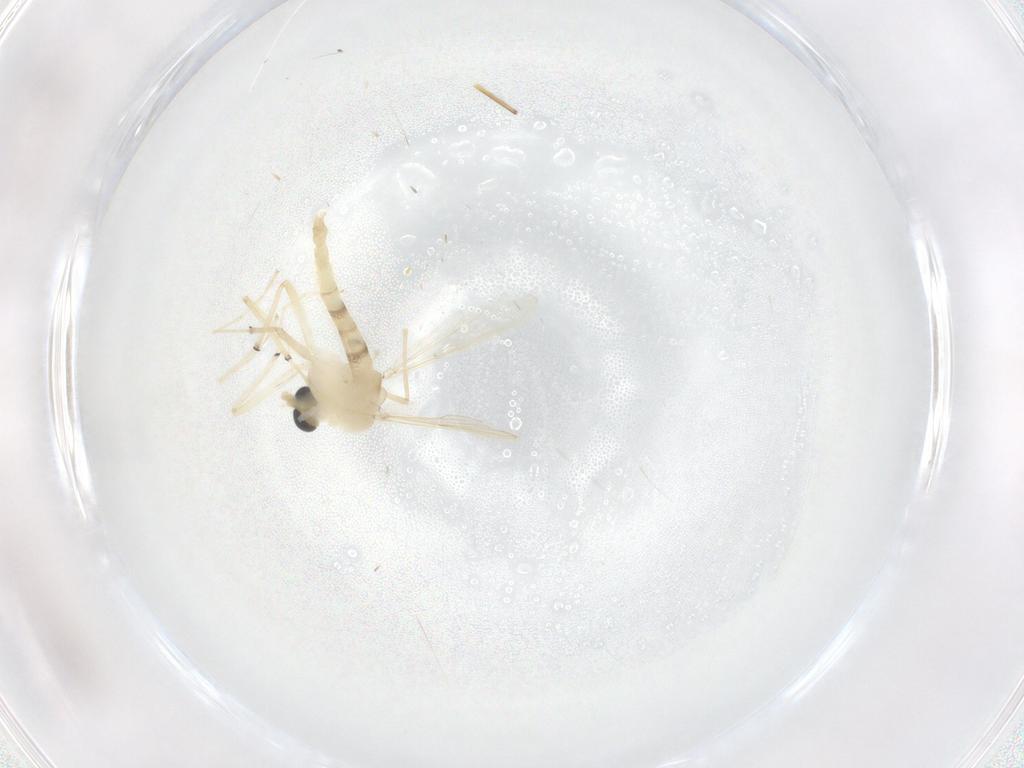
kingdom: Animalia
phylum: Arthropoda
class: Insecta
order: Diptera
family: Chironomidae
